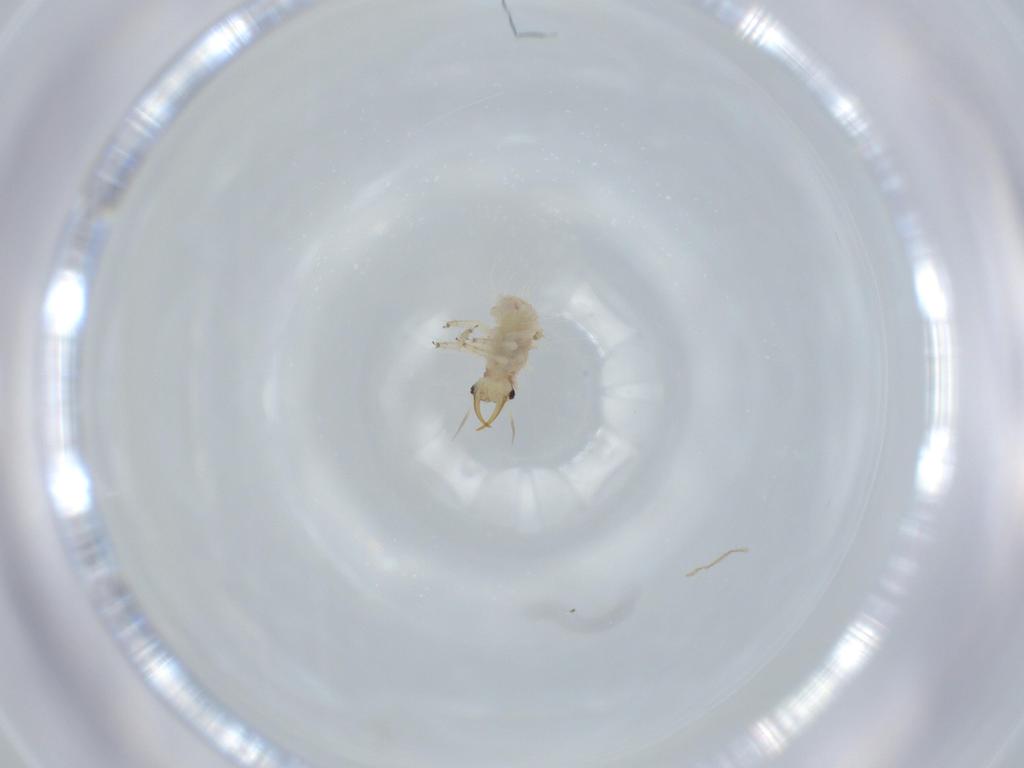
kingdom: Animalia
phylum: Arthropoda
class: Insecta
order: Neuroptera
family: Chrysopidae
